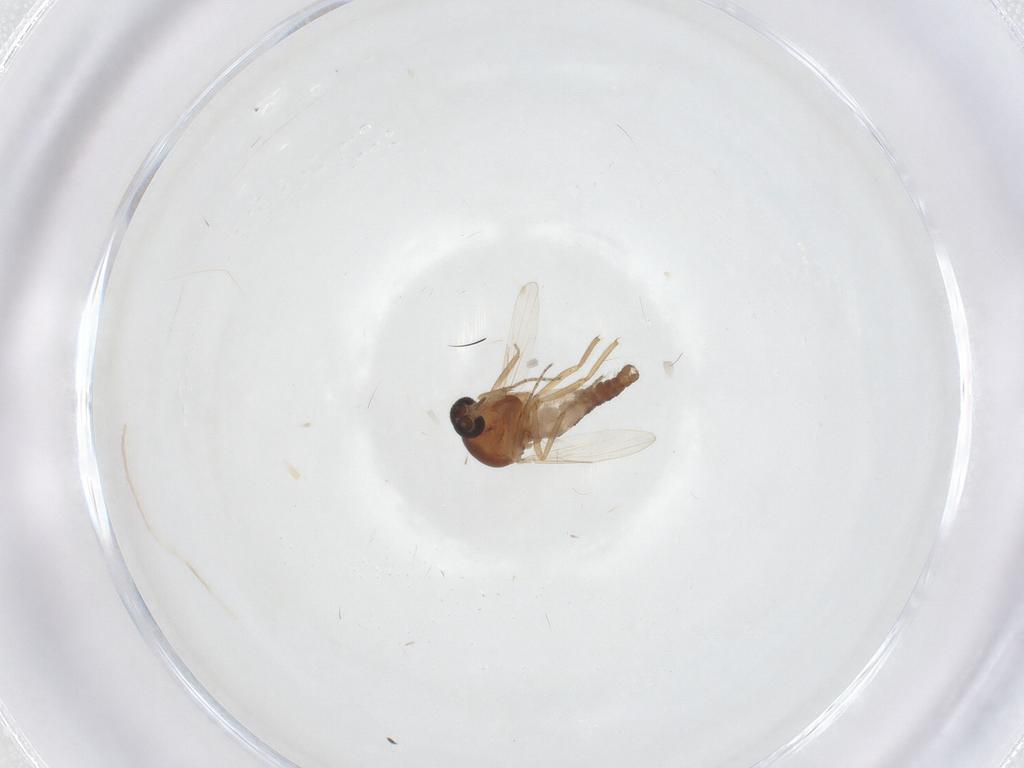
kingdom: Animalia
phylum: Arthropoda
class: Insecta
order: Diptera
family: Ceratopogonidae
